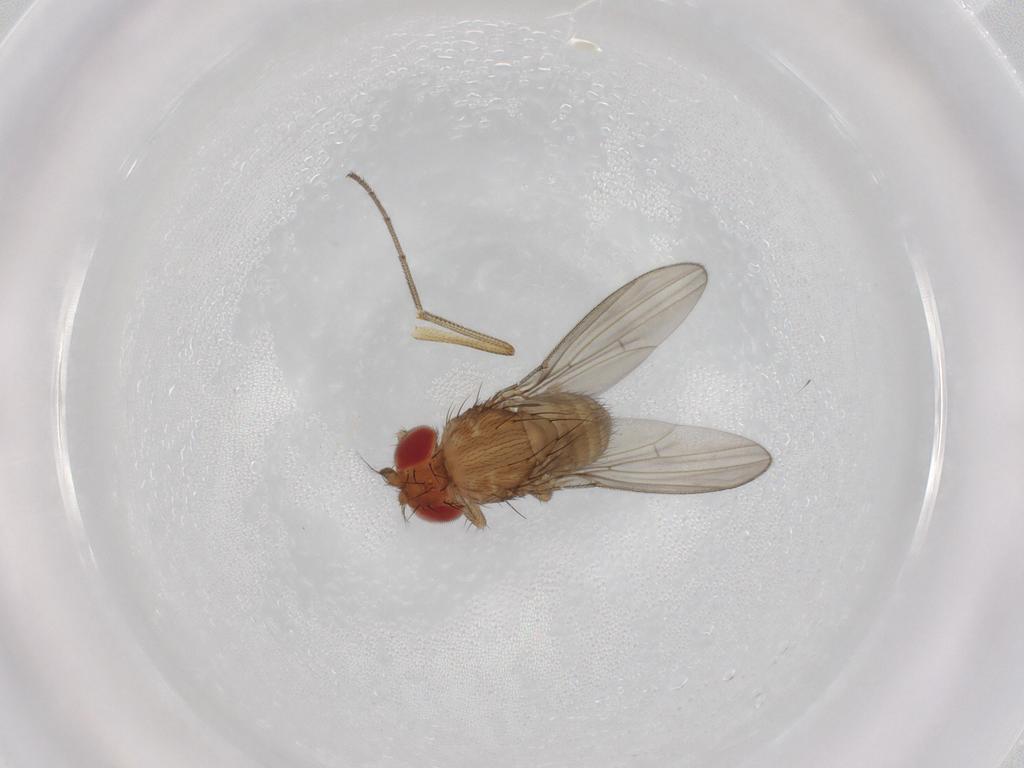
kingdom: Animalia
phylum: Arthropoda
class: Insecta
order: Diptera
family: Drosophilidae
